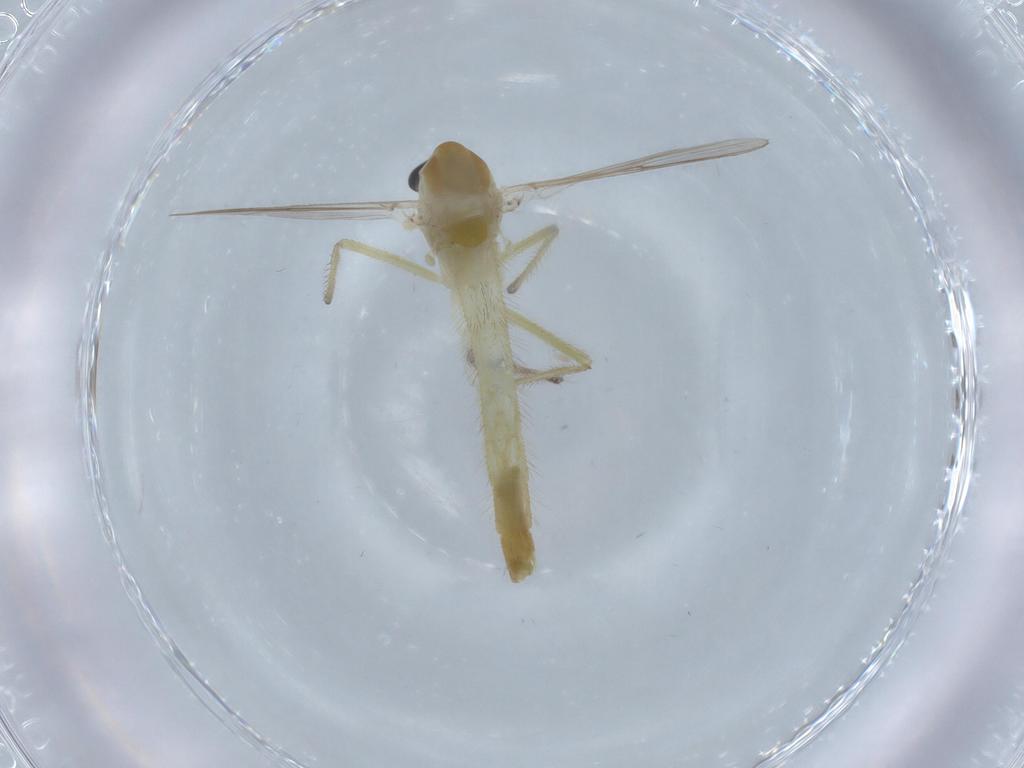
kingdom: Animalia
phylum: Arthropoda
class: Insecta
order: Diptera
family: Chironomidae
